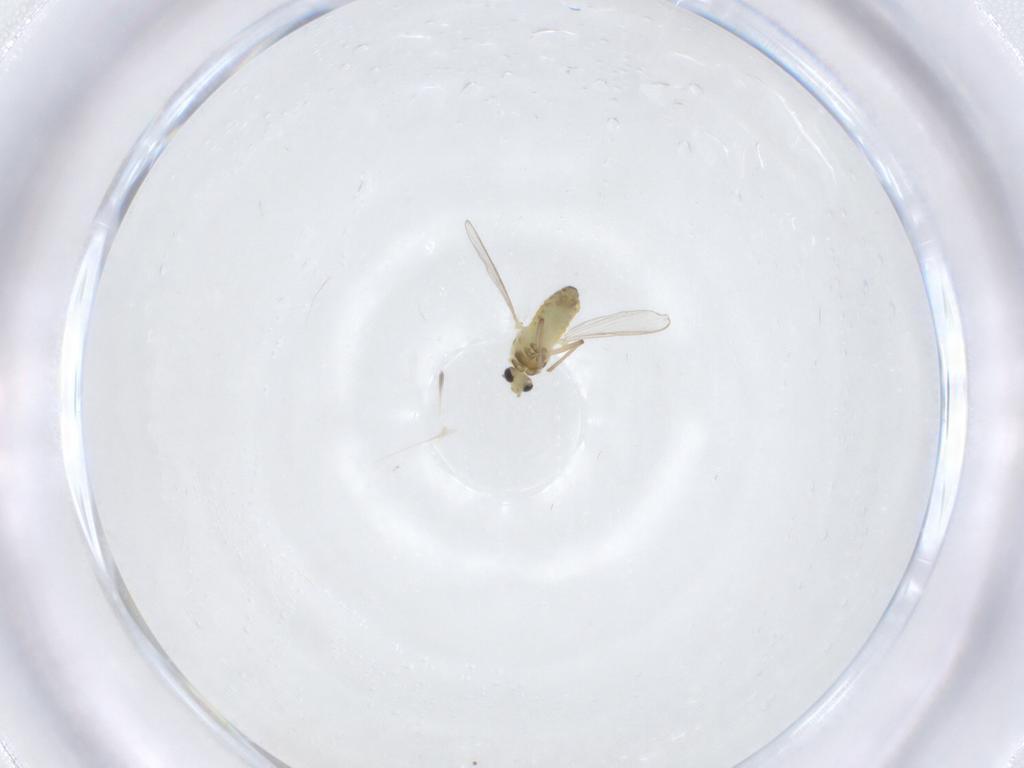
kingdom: Animalia
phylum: Arthropoda
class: Insecta
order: Diptera
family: Chironomidae
